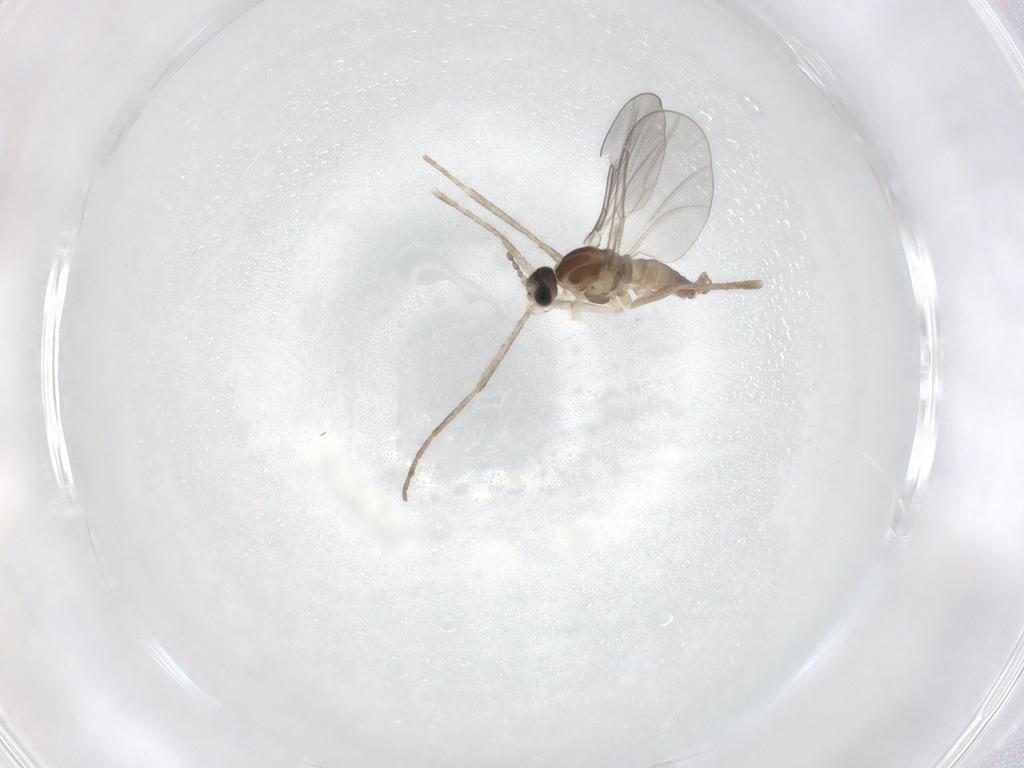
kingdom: Animalia
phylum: Arthropoda
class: Insecta
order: Diptera
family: Cecidomyiidae
